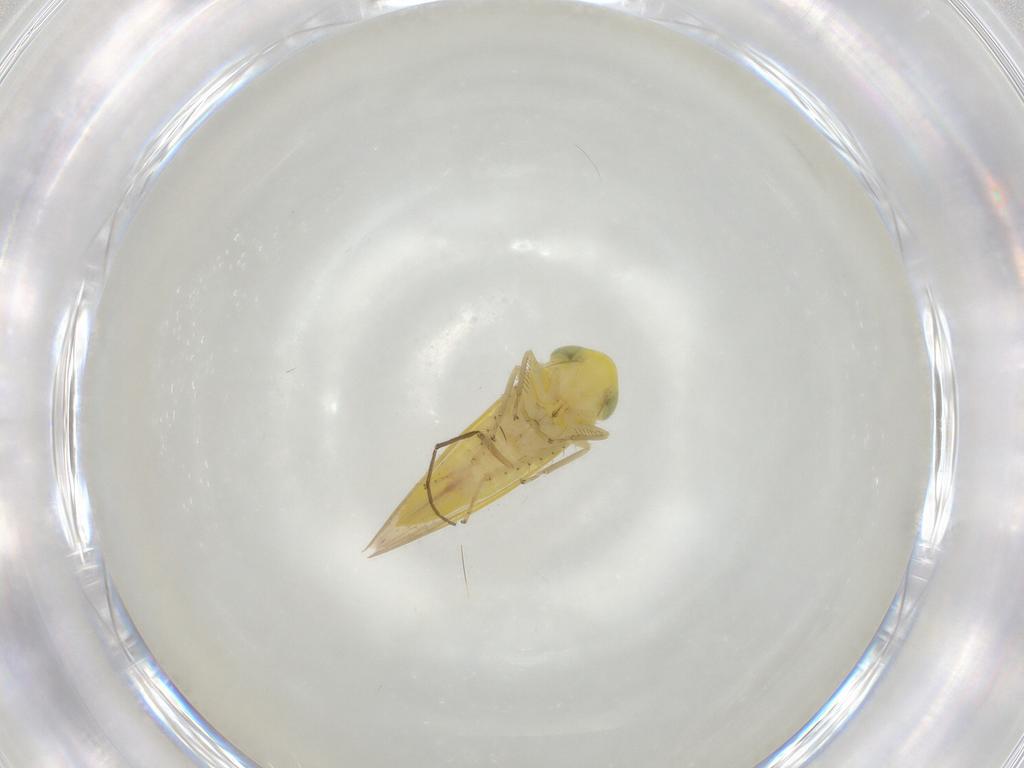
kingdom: Animalia
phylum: Arthropoda
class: Insecta
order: Hemiptera
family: Cicadellidae
